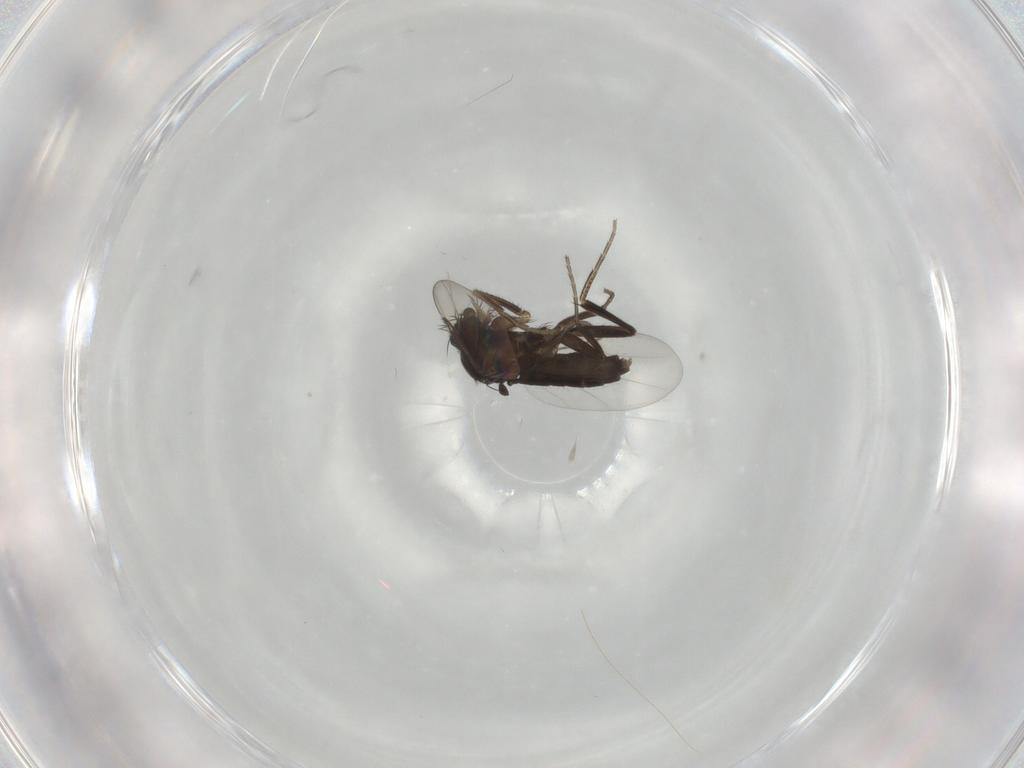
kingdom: Animalia
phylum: Arthropoda
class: Insecta
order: Diptera
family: Phoridae
